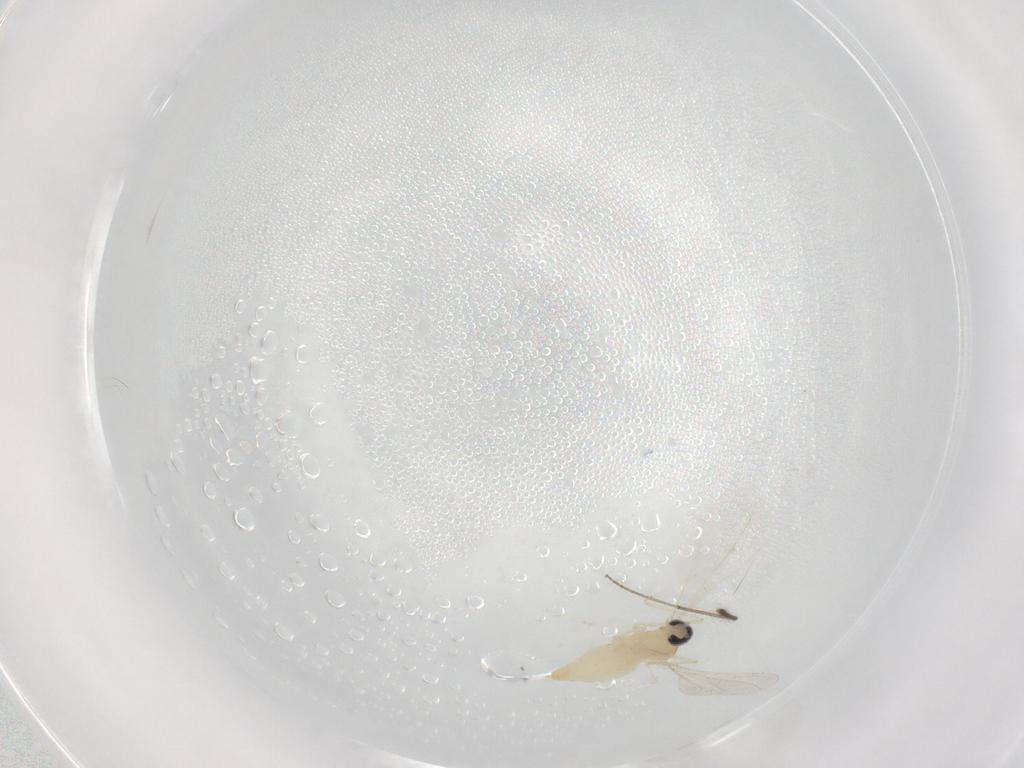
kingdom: Animalia
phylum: Arthropoda
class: Insecta
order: Diptera
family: Cecidomyiidae
